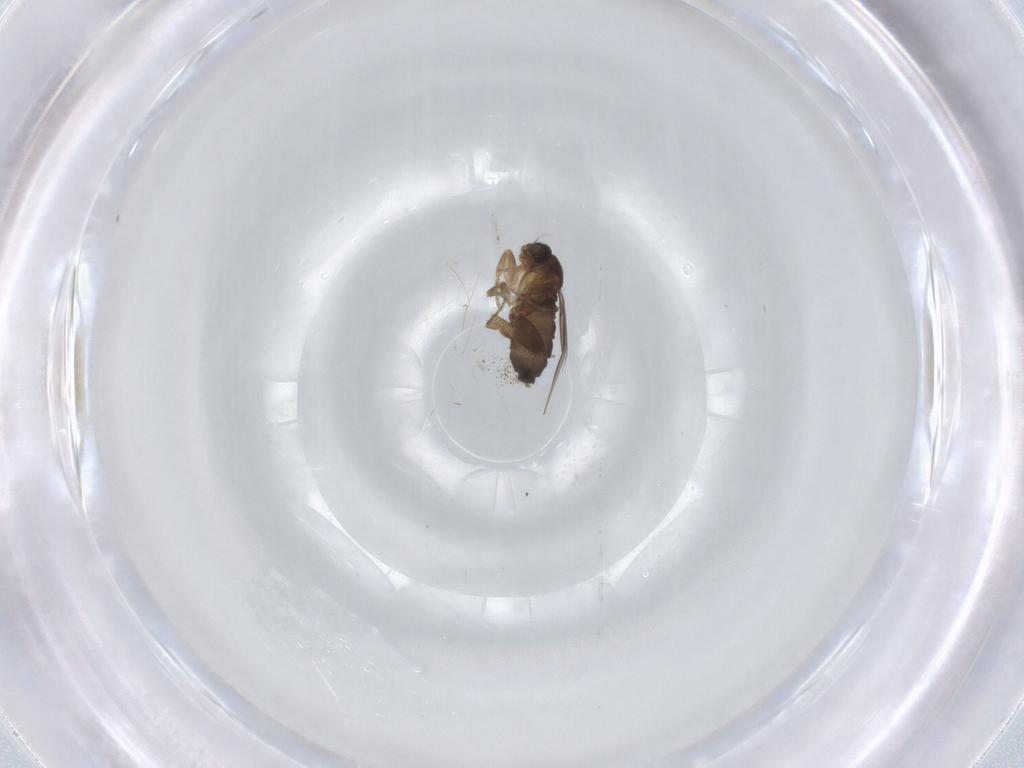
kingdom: Animalia
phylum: Arthropoda
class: Insecta
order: Diptera
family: Phoridae
